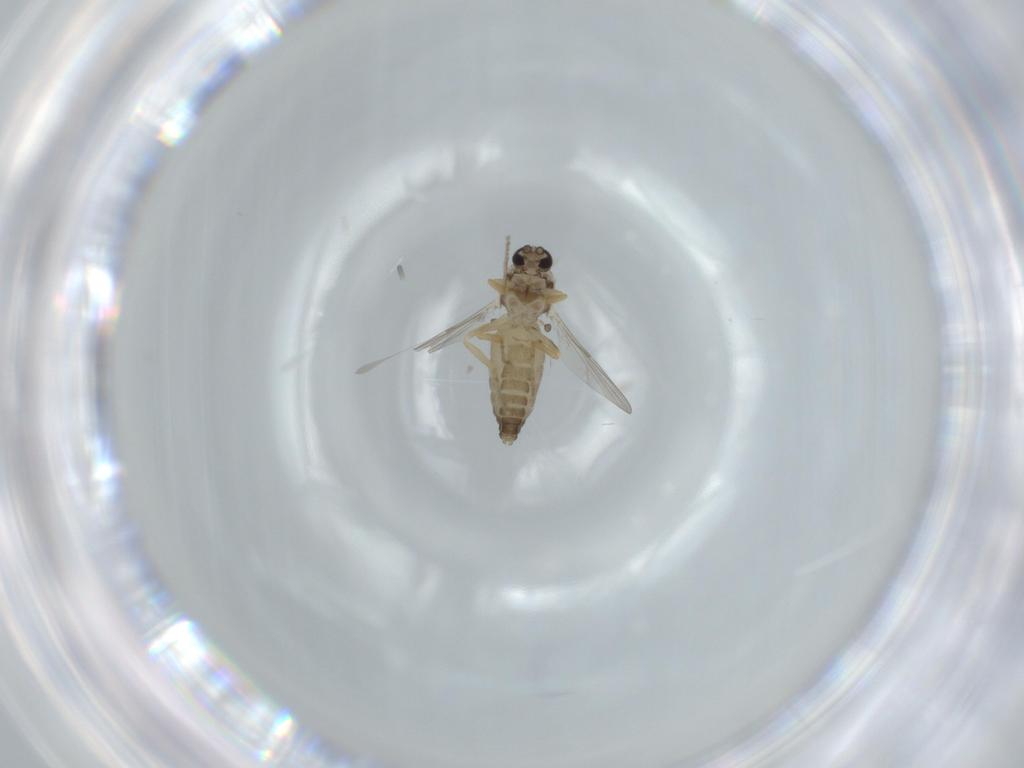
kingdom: Animalia
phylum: Arthropoda
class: Insecta
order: Diptera
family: Ceratopogonidae
